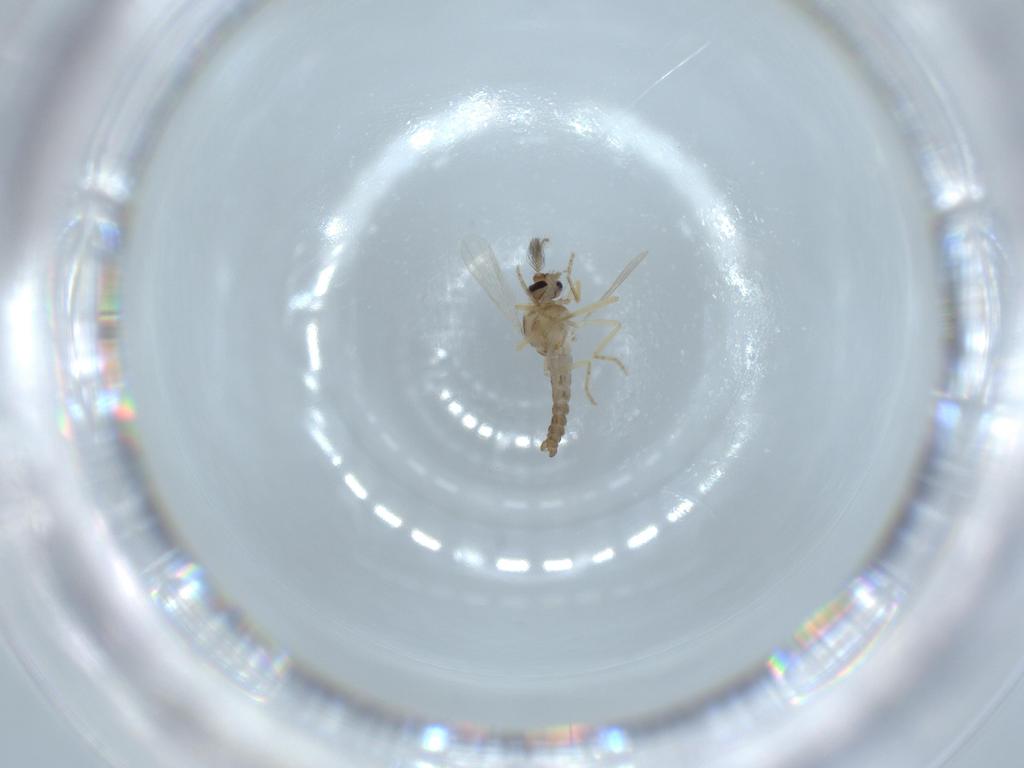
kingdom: Animalia
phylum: Arthropoda
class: Insecta
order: Diptera
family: Ceratopogonidae
